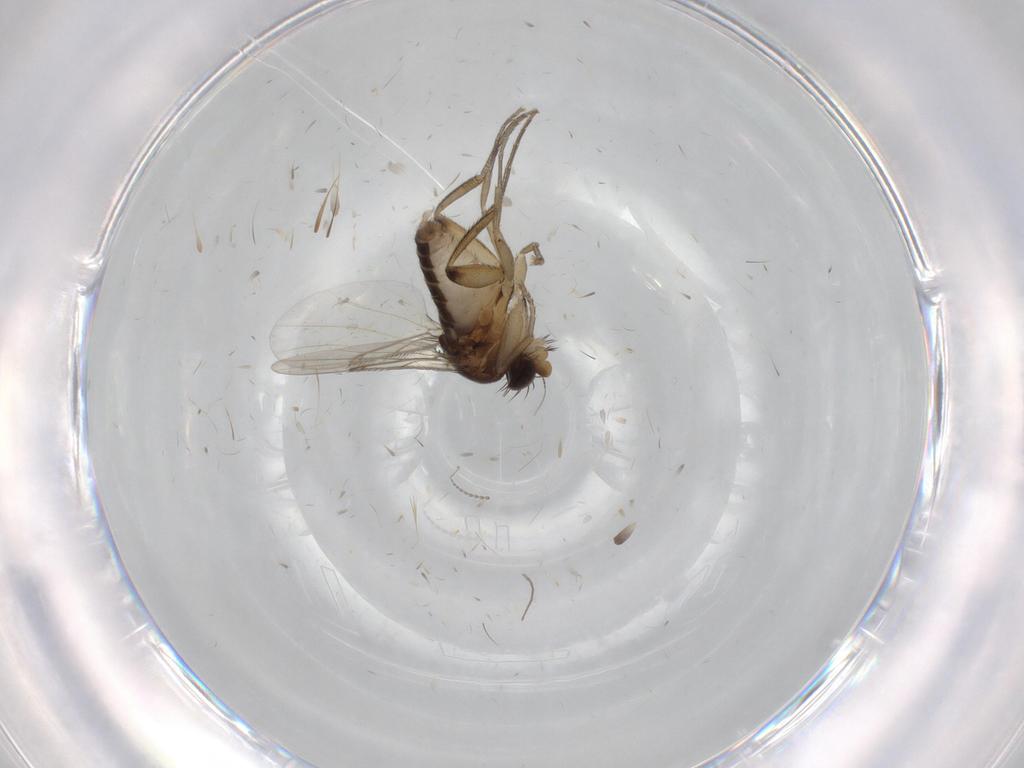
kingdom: Animalia
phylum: Arthropoda
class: Insecta
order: Diptera
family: Phoridae
